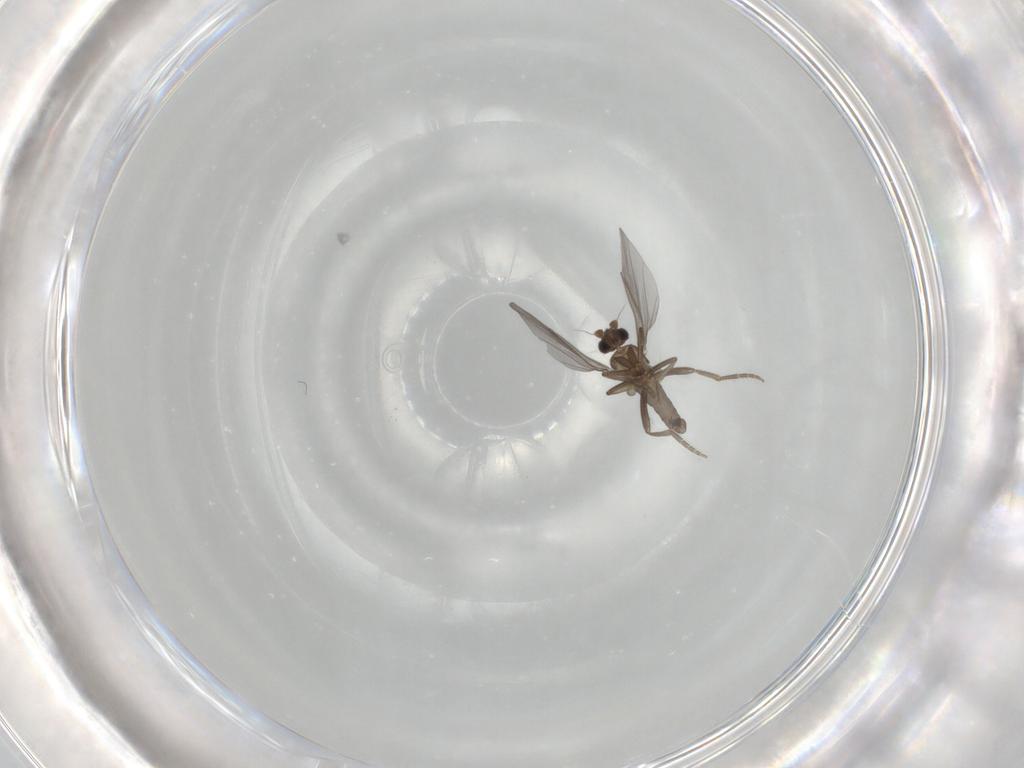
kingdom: Animalia
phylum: Arthropoda
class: Insecta
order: Diptera
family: Phoridae
